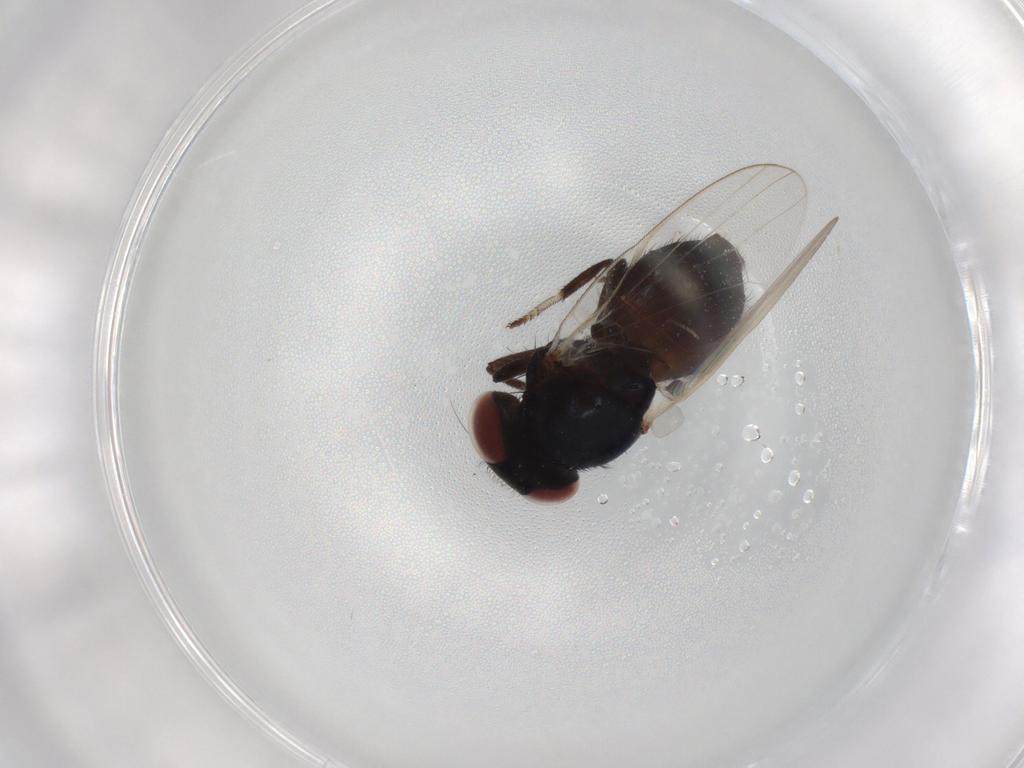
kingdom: Animalia
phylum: Arthropoda
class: Insecta
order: Diptera
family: Lonchaeidae
